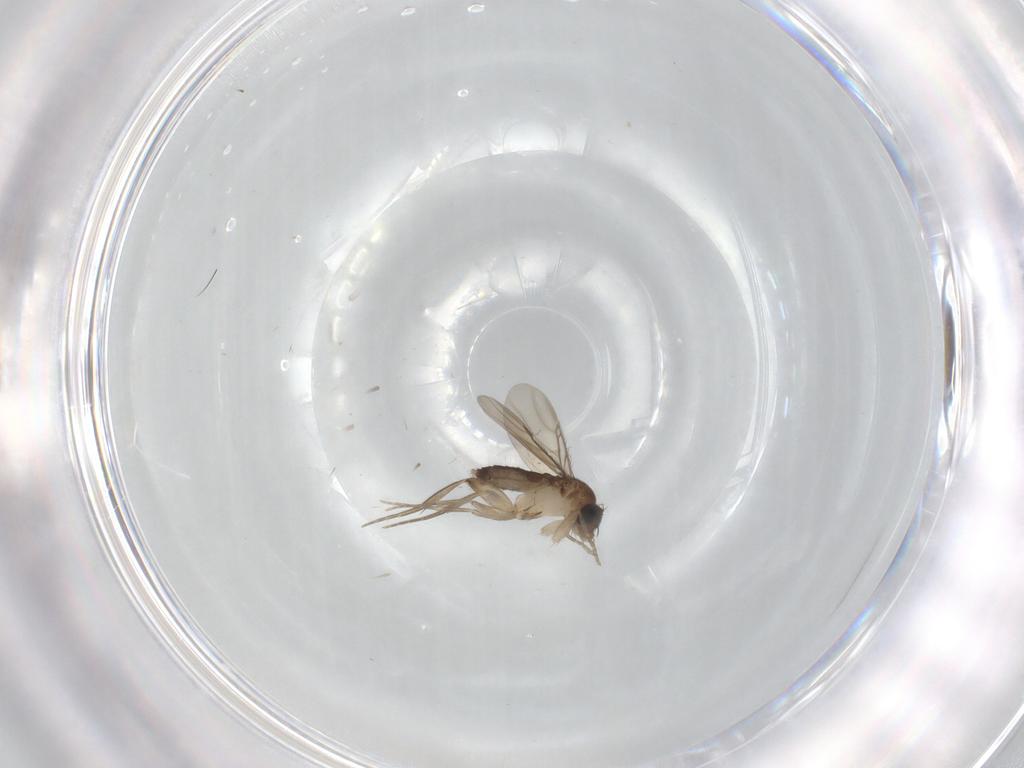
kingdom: Animalia
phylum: Arthropoda
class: Insecta
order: Diptera
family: Phoridae
